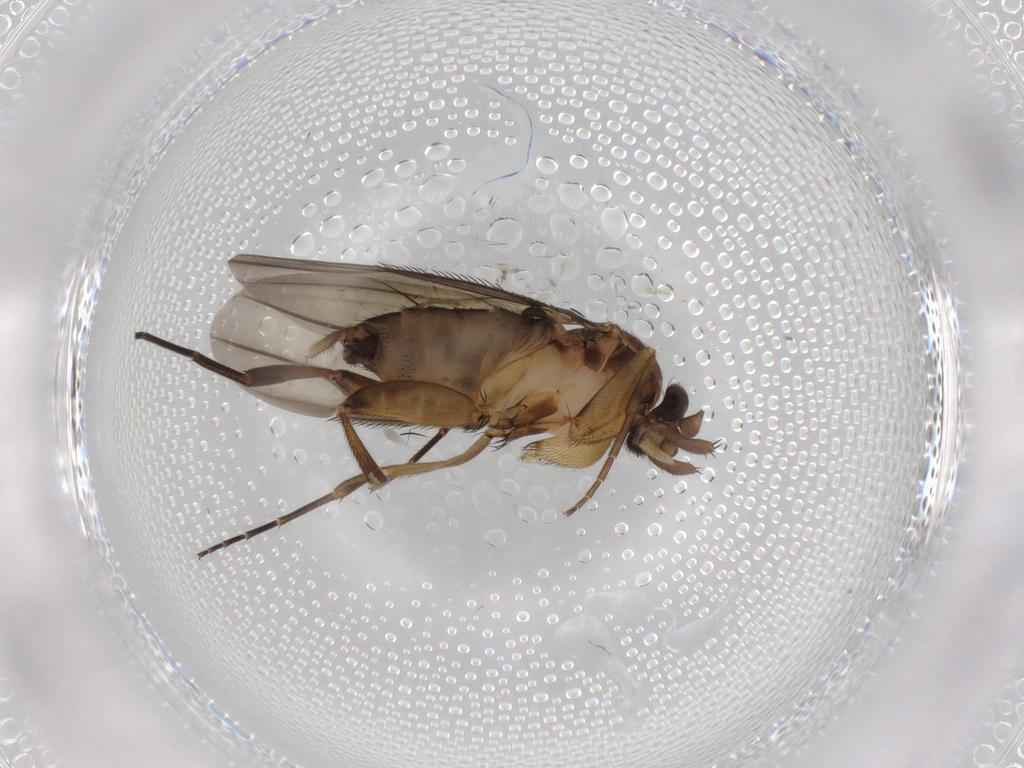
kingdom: Animalia
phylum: Arthropoda
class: Insecta
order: Diptera
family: Phoridae
